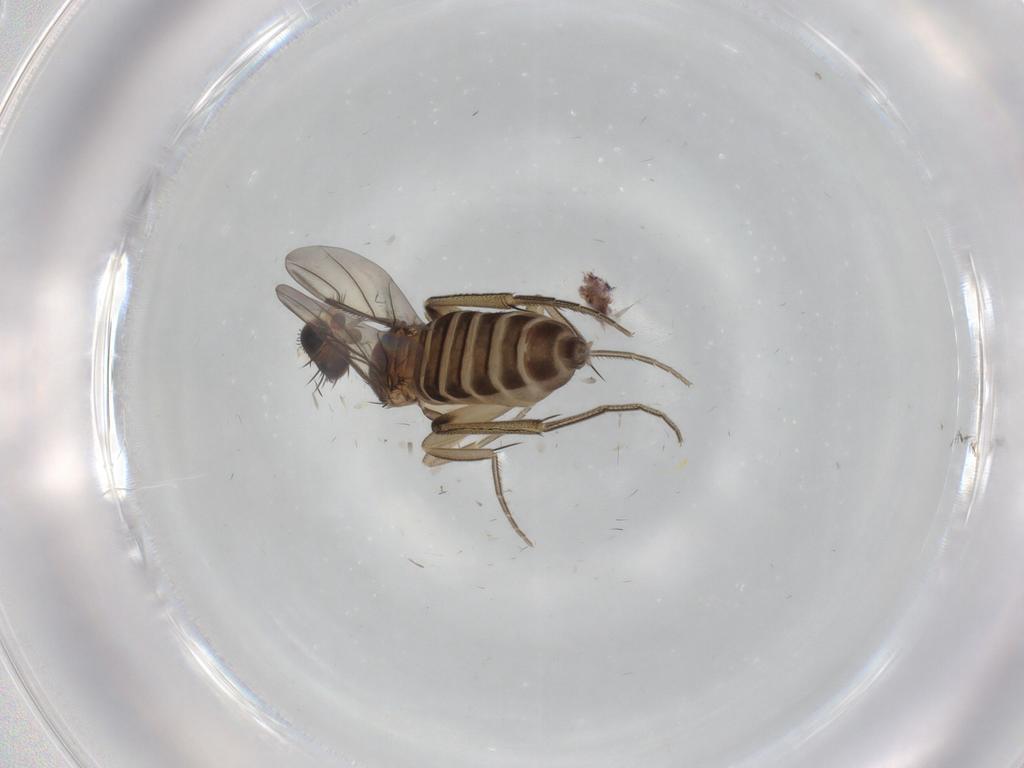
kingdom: Animalia
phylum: Arthropoda
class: Insecta
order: Diptera
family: Phoridae
